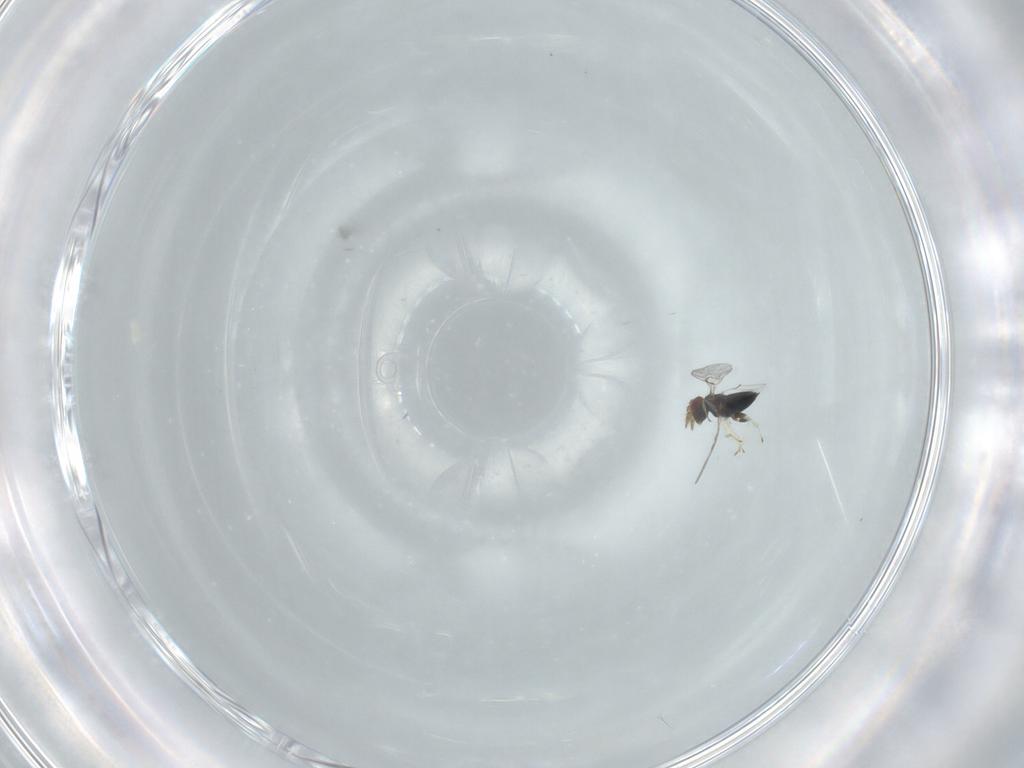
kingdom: Animalia
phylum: Arthropoda
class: Insecta
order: Hymenoptera
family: Trichogrammatidae
